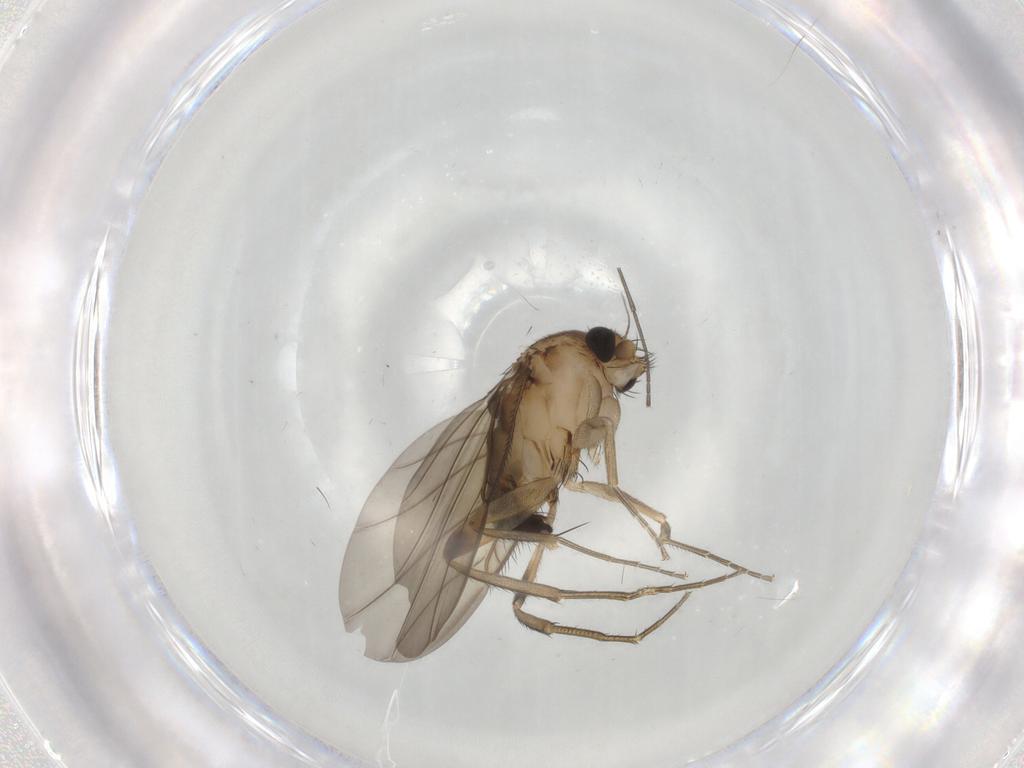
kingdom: Animalia
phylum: Arthropoda
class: Insecta
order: Diptera
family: Phoridae
